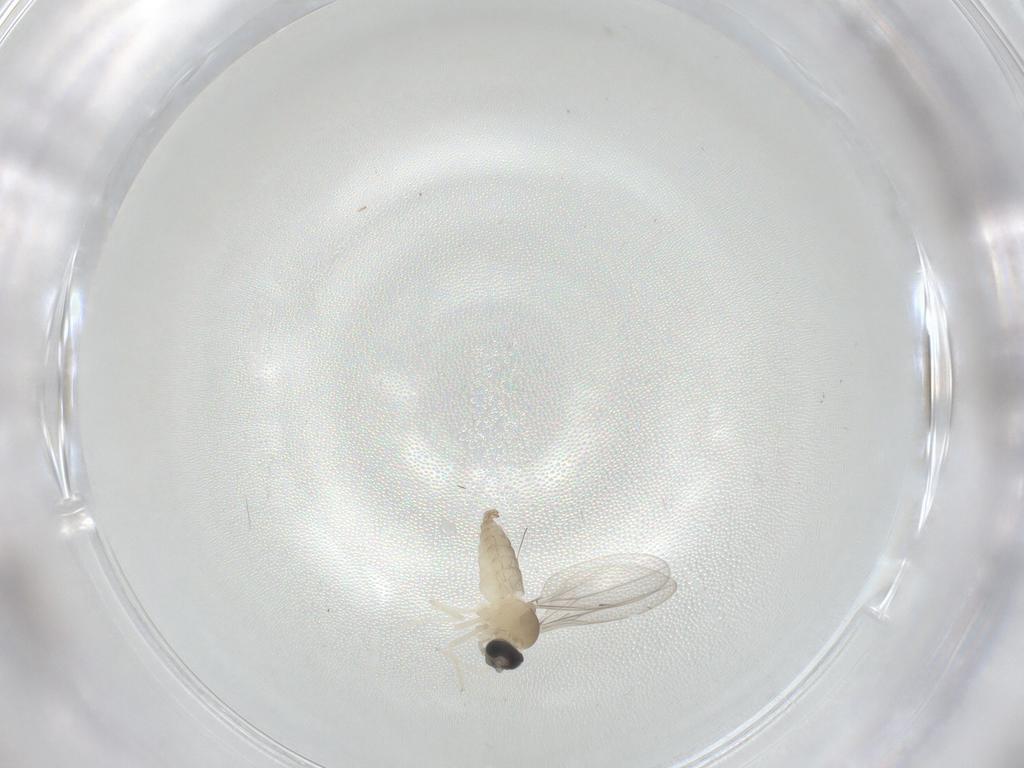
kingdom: Animalia
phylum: Arthropoda
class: Insecta
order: Diptera
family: Cecidomyiidae
